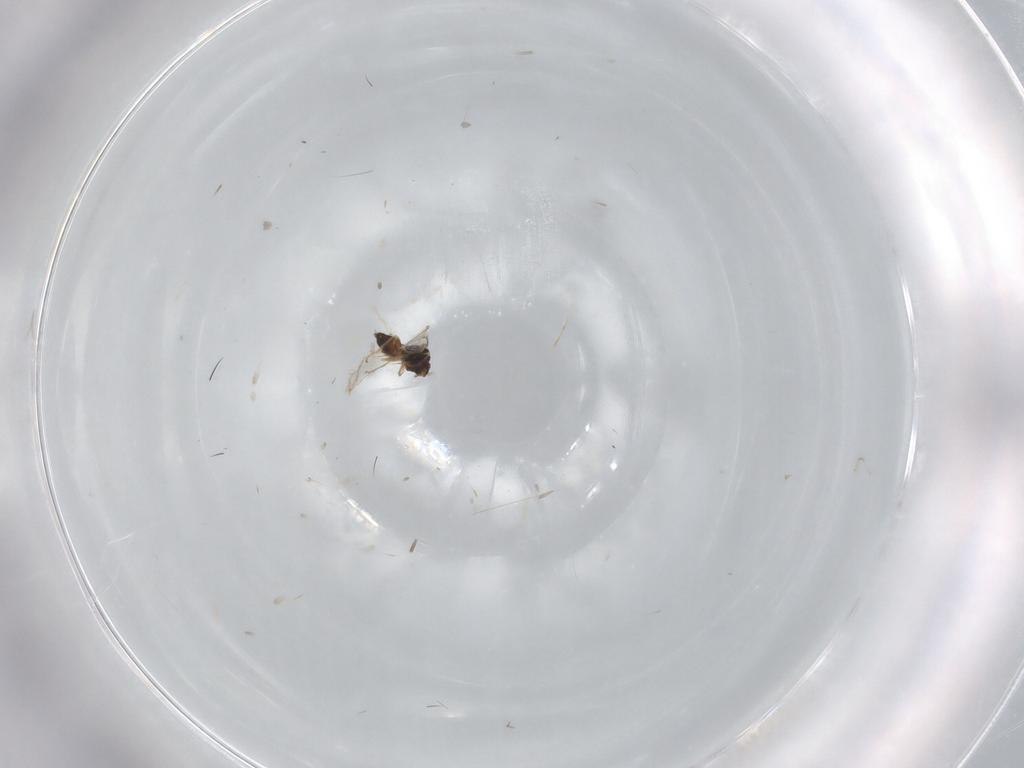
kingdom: Animalia
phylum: Arthropoda
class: Insecta
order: Hymenoptera
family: Eulophidae
